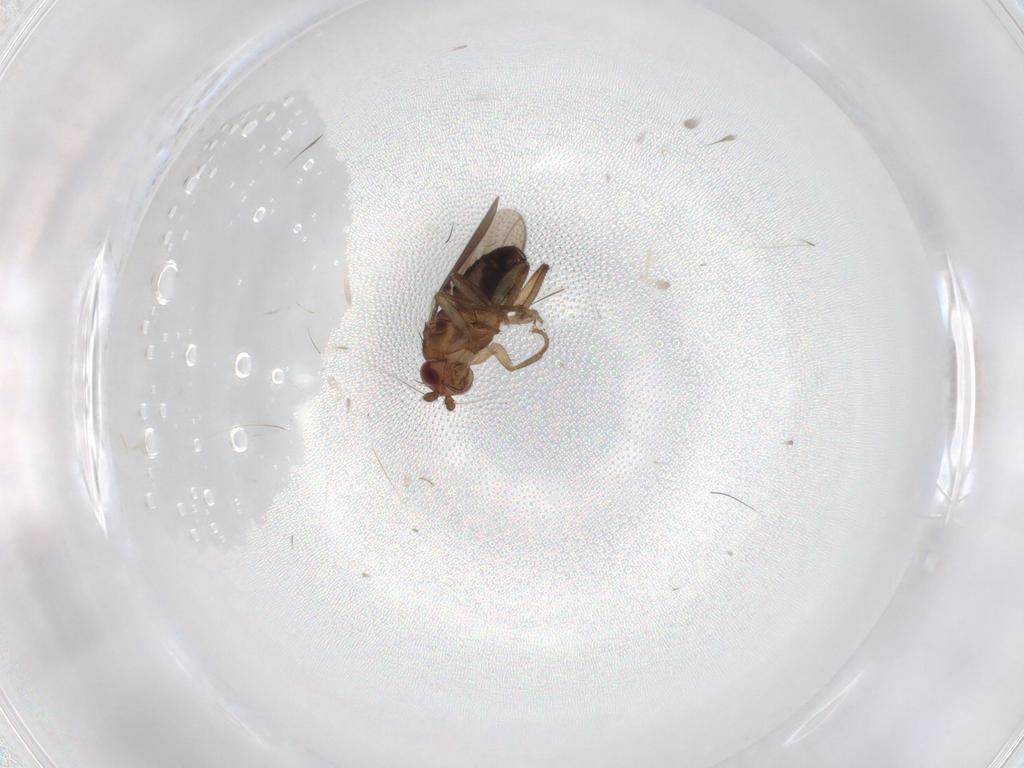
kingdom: Animalia
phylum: Arthropoda
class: Insecta
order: Diptera
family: Sphaeroceridae
